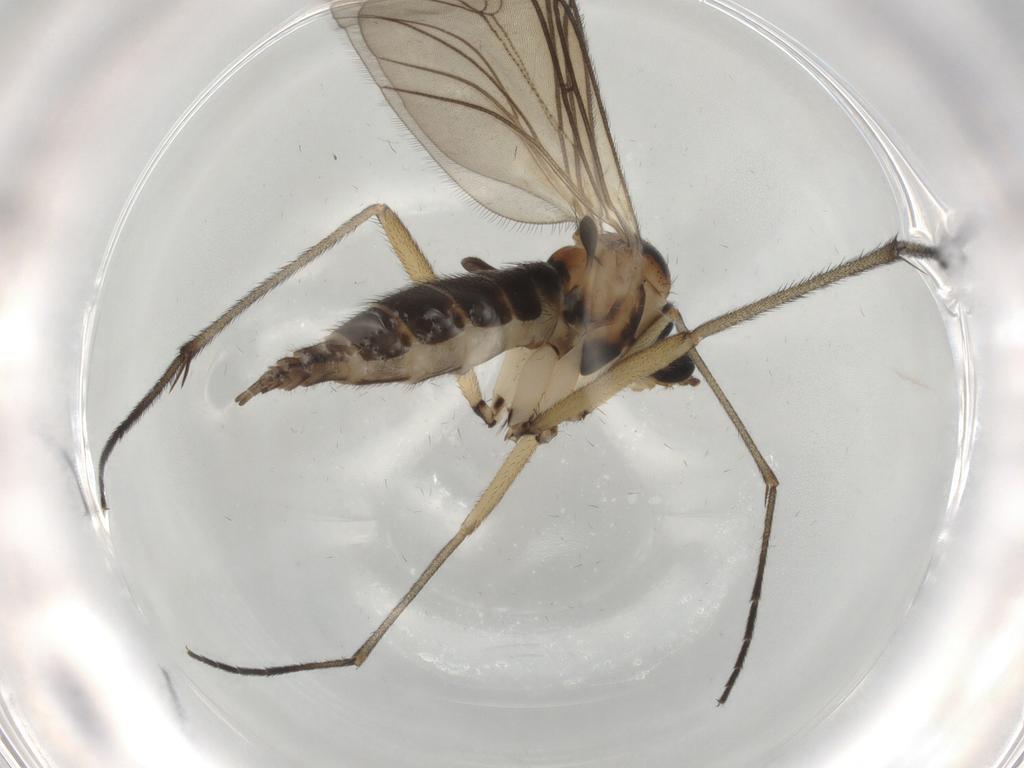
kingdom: Animalia
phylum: Arthropoda
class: Insecta
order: Diptera
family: Sciaridae
